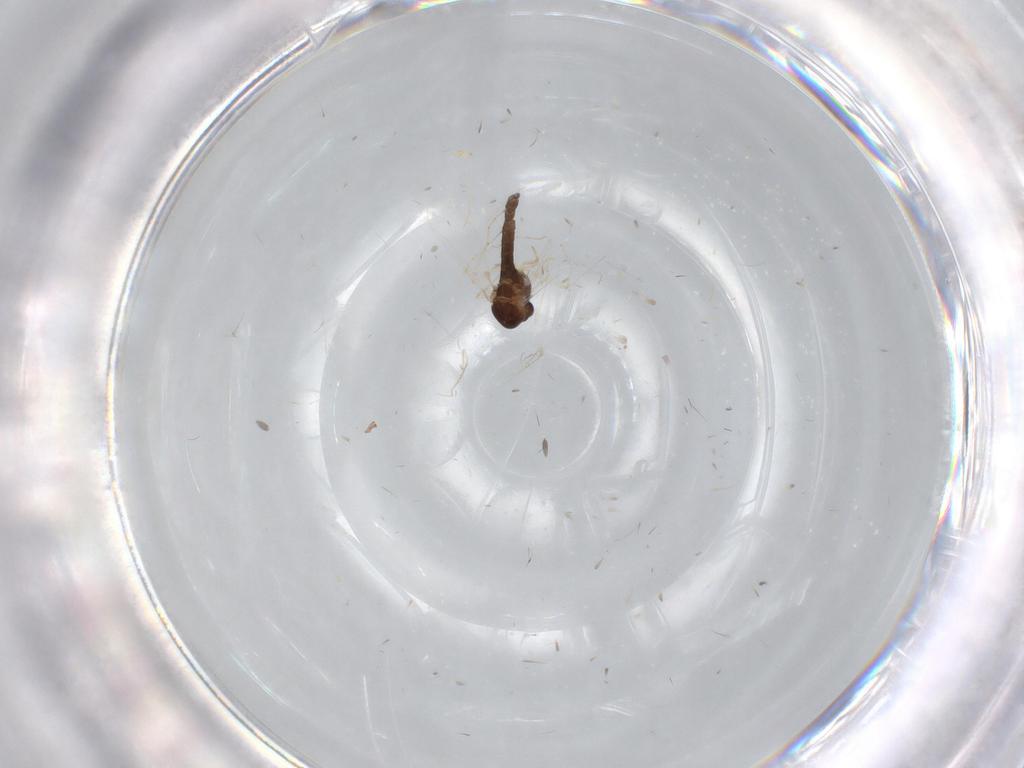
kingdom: Animalia
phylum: Arthropoda
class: Insecta
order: Diptera
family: Chironomidae
